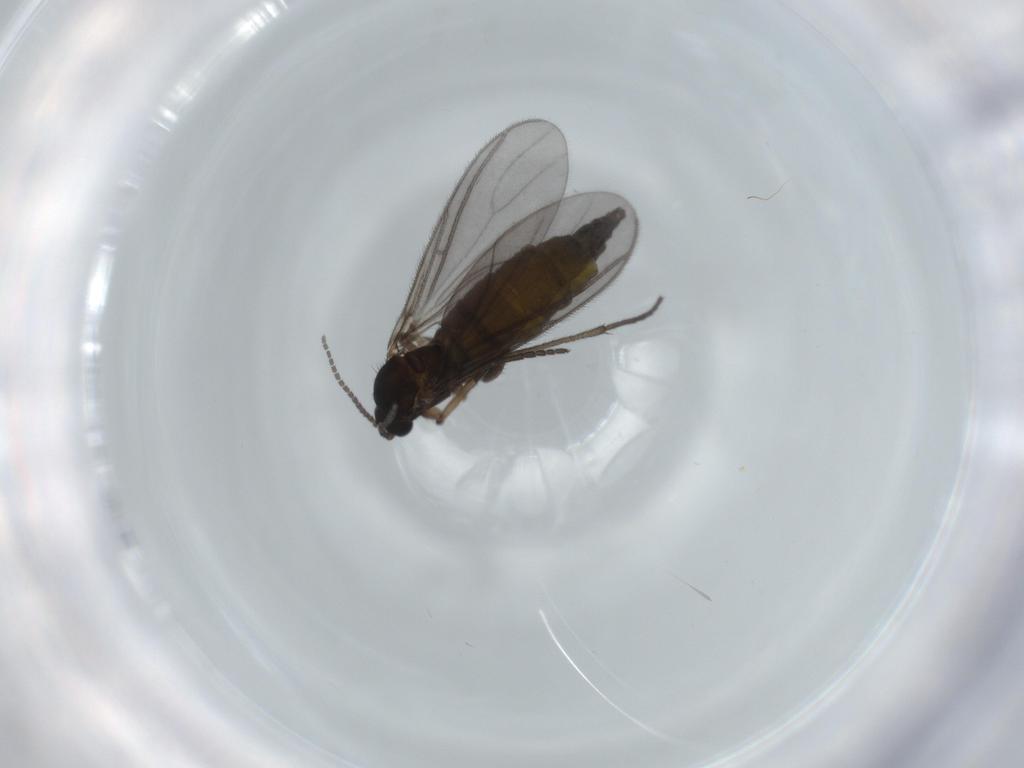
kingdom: Animalia
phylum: Arthropoda
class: Insecta
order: Diptera
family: Sciaridae
